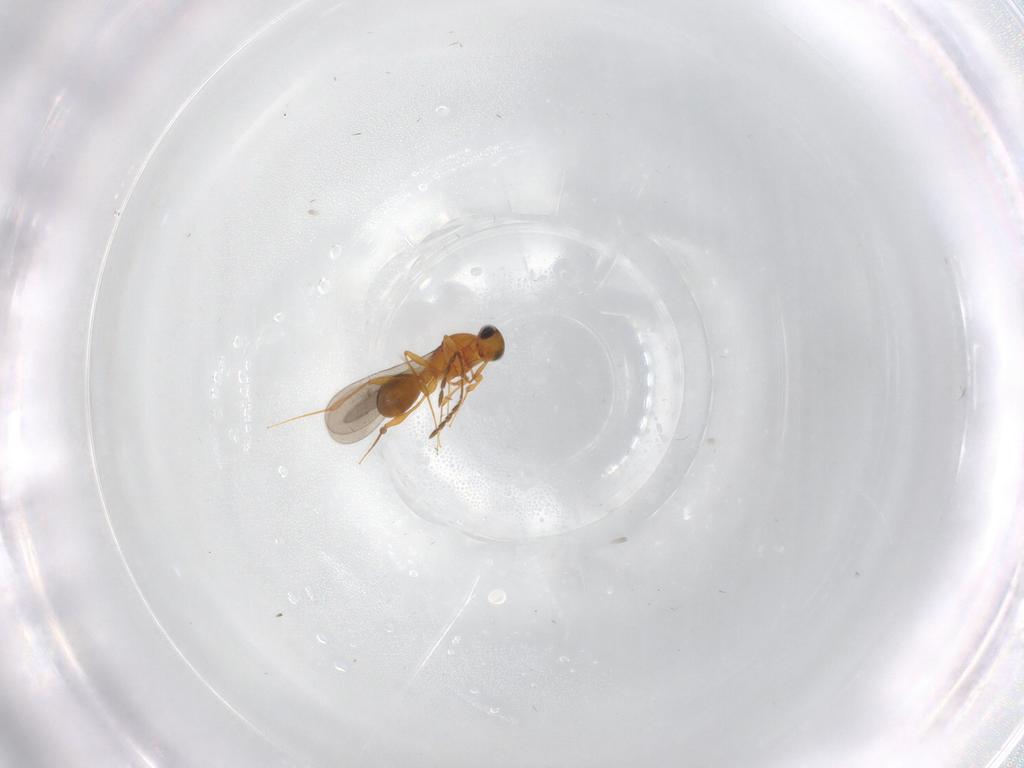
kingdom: Animalia
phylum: Arthropoda
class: Insecta
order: Hymenoptera
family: Platygastridae
